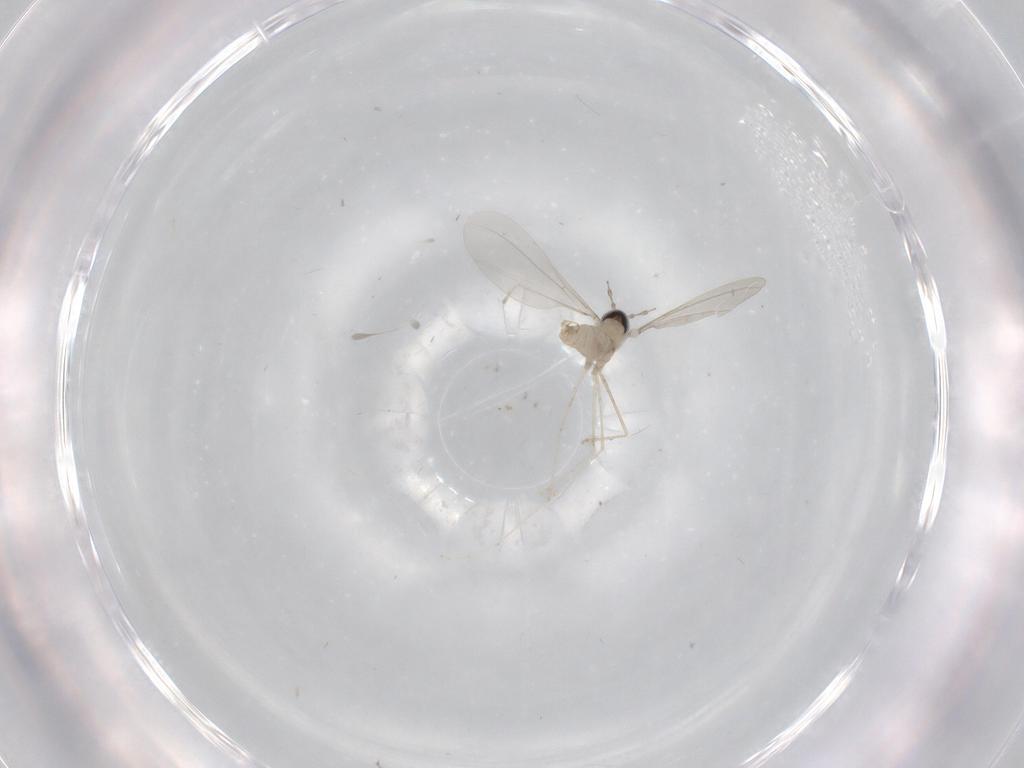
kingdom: Animalia
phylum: Arthropoda
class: Insecta
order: Diptera
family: Cecidomyiidae
